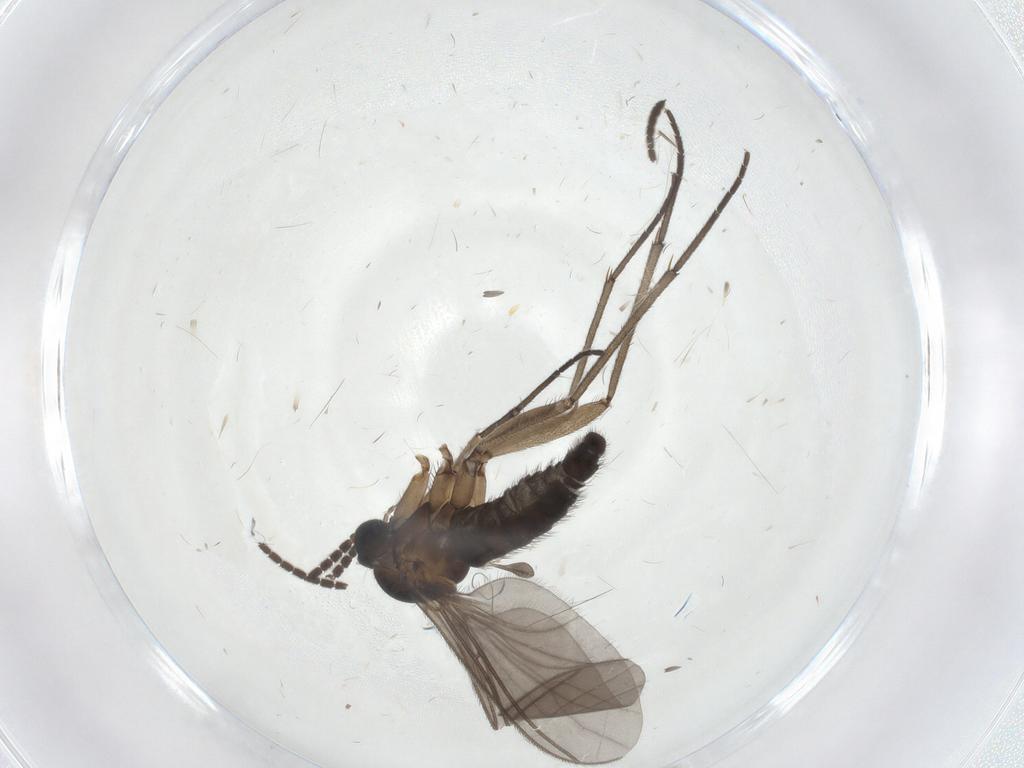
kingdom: Animalia
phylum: Arthropoda
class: Insecta
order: Diptera
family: Sciaridae
